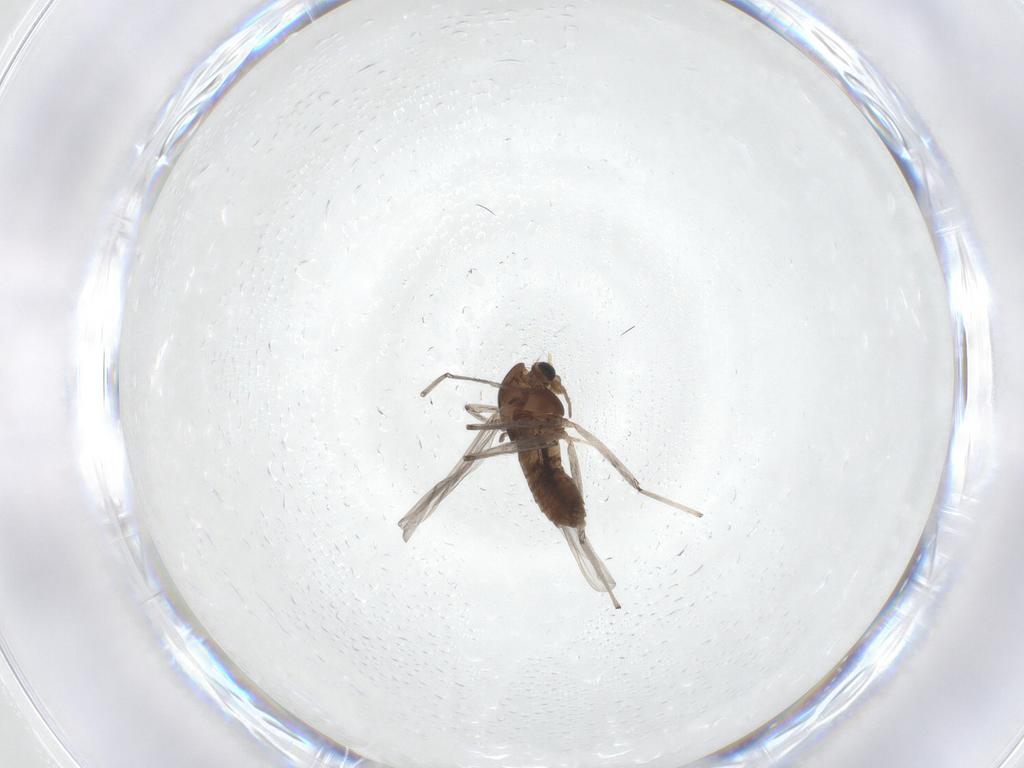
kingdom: Animalia
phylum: Arthropoda
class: Insecta
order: Diptera
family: Chironomidae
